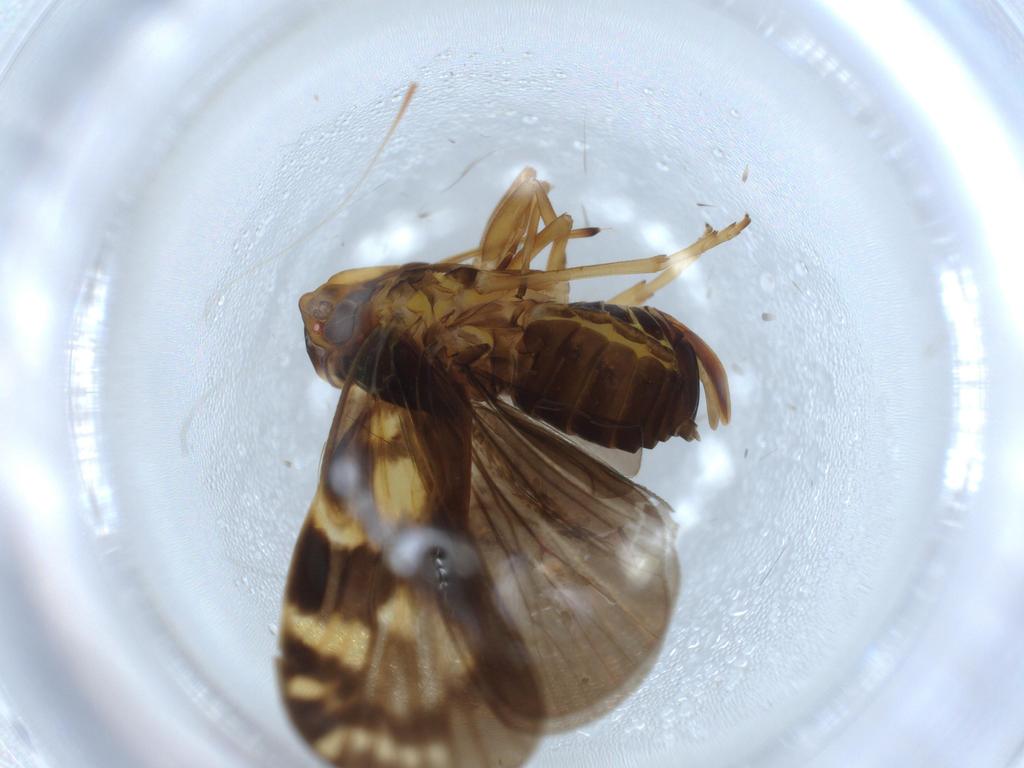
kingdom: Animalia
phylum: Arthropoda
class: Insecta
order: Hemiptera
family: Cixiidae
